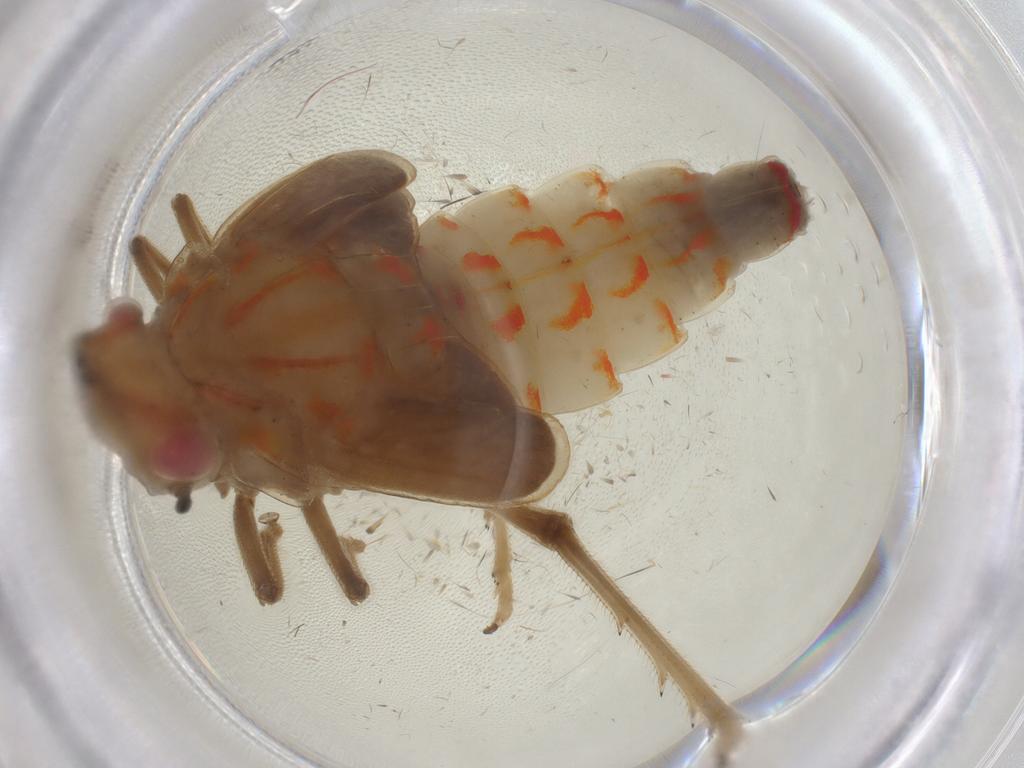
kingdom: Animalia
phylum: Arthropoda
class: Insecta
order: Hemiptera
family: Tropiduchidae
